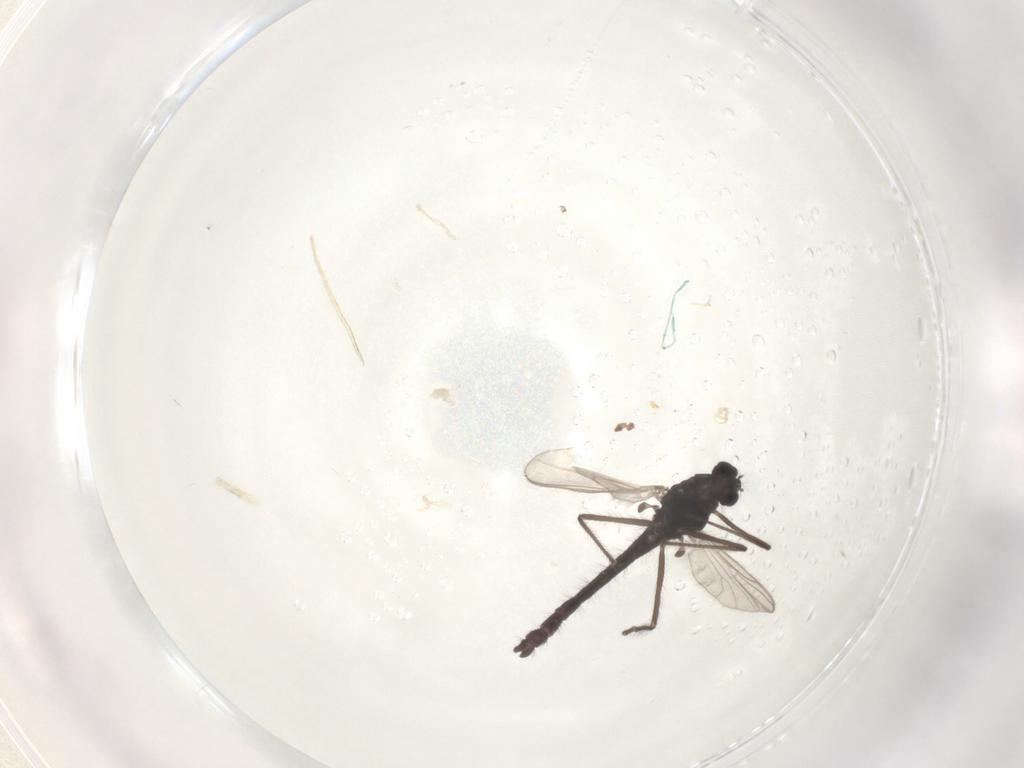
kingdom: Animalia
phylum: Arthropoda
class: Insecta
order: Diptera
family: Chironomidae
